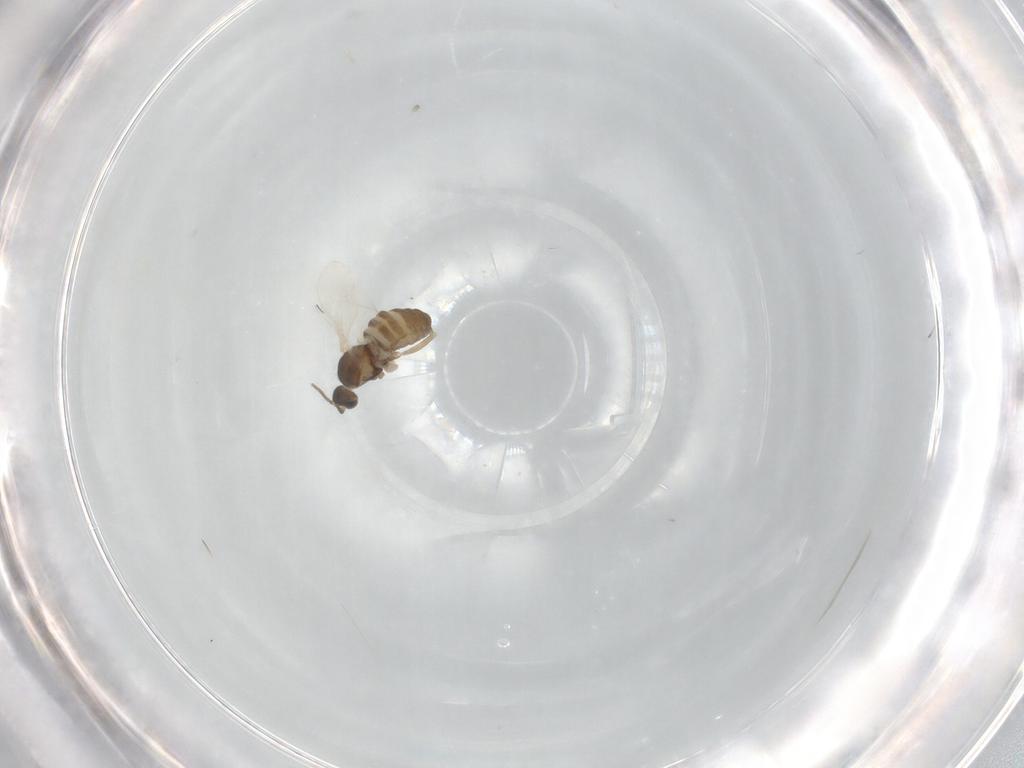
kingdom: Animalia
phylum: Arthropoda
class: Insecta
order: Diptera
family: Cecidomyiidae
